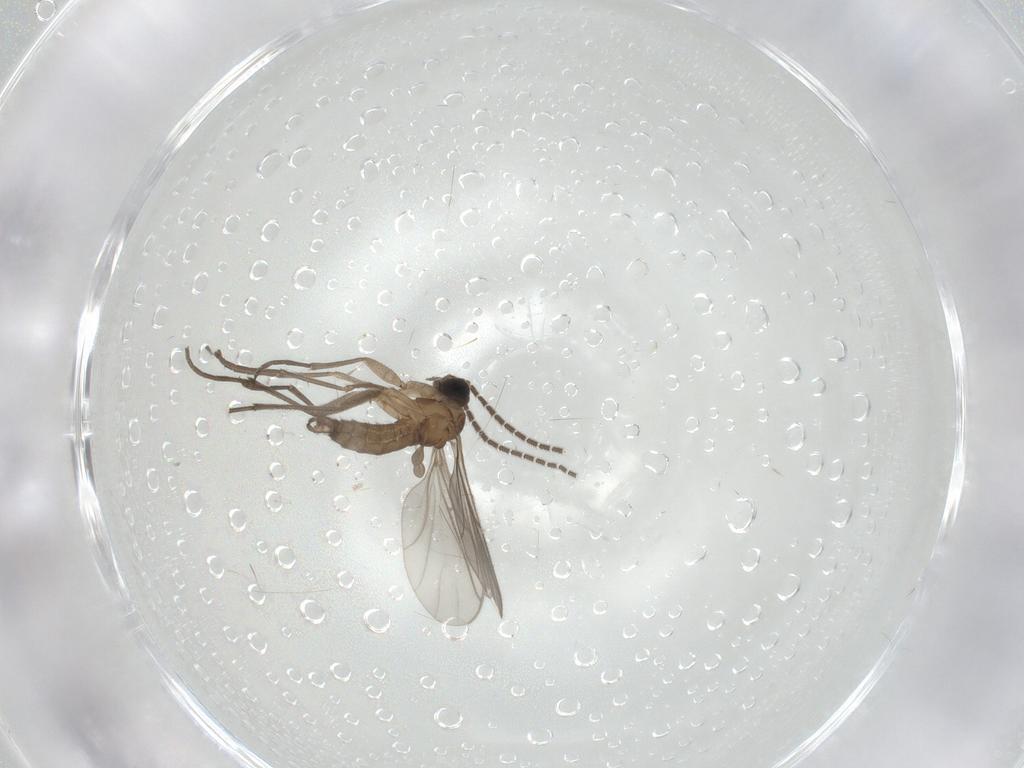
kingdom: Animalia
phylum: Arthropoda
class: Insecta
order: Diptera
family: Sciaridae
